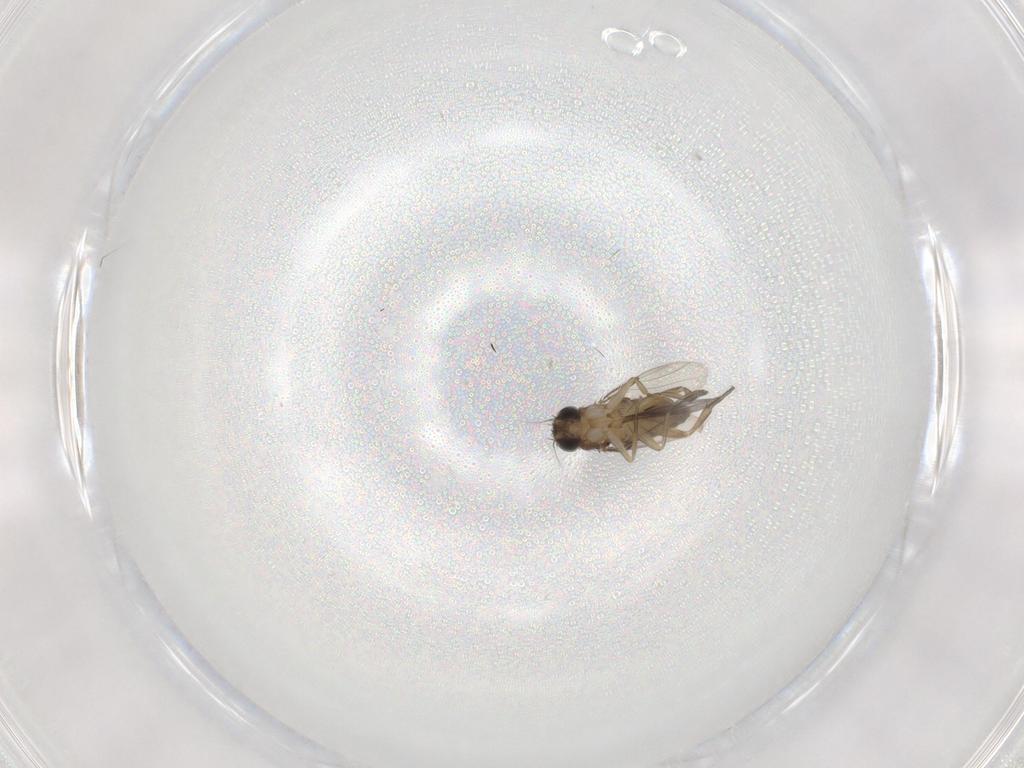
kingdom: Animalia
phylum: Arthropoda
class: Insecta
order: Diptera
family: Phoridae
